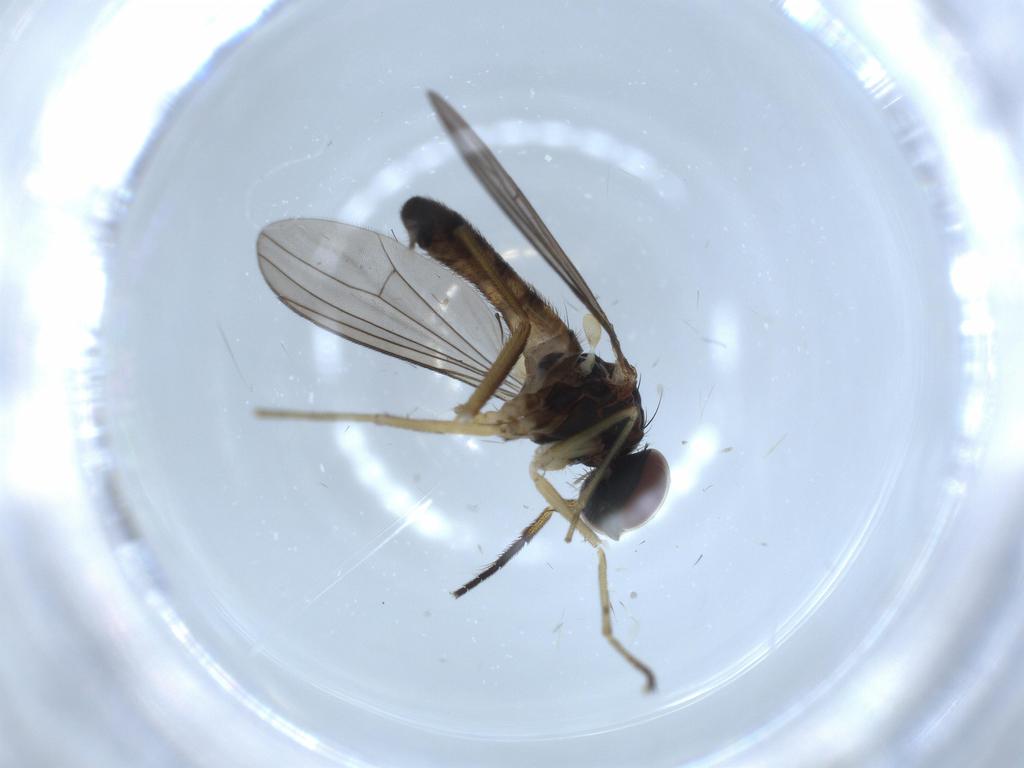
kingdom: Animalia
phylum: Arthropoda
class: Insecta
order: Diptera
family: Dolichopodidae
